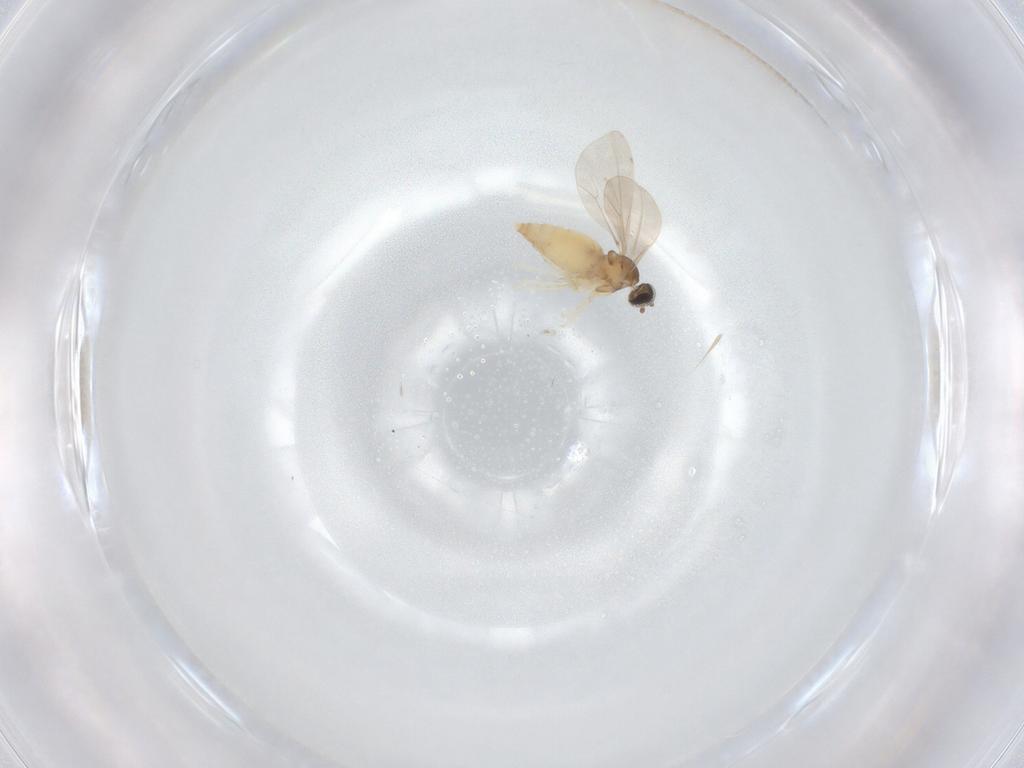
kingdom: Animalia
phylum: Arthropoda
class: Insecta
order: Diptera
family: Cecidomyiidae
